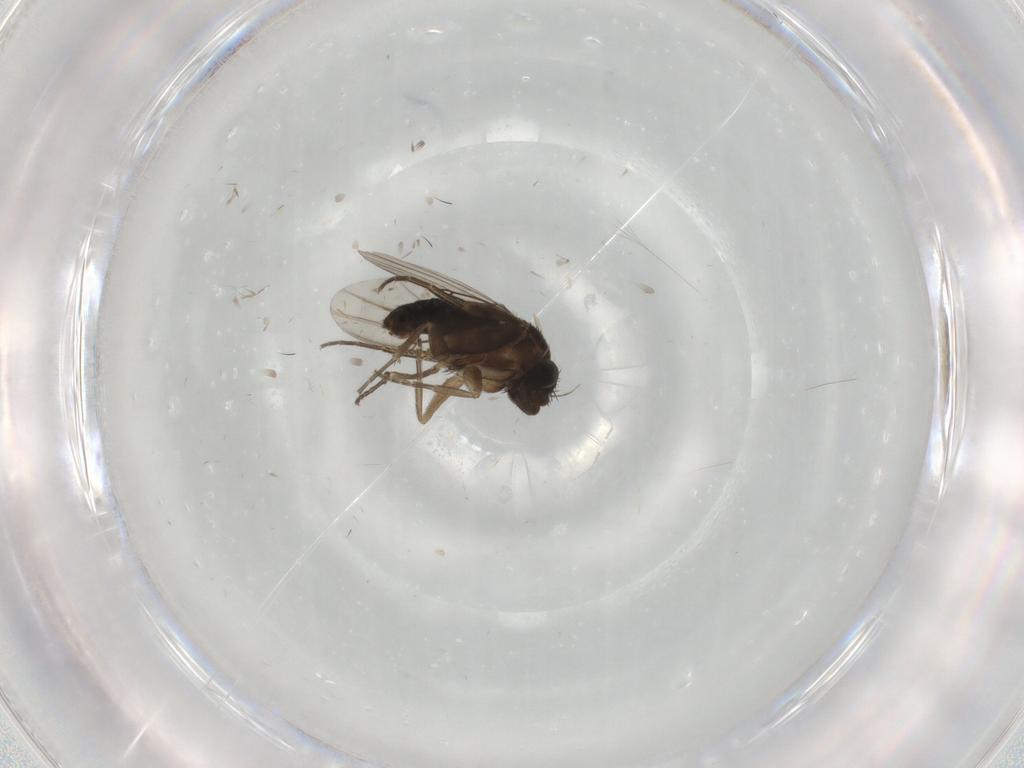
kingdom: Animalia
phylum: Arthropoda
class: Insecta
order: Diptera
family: Phoridae
